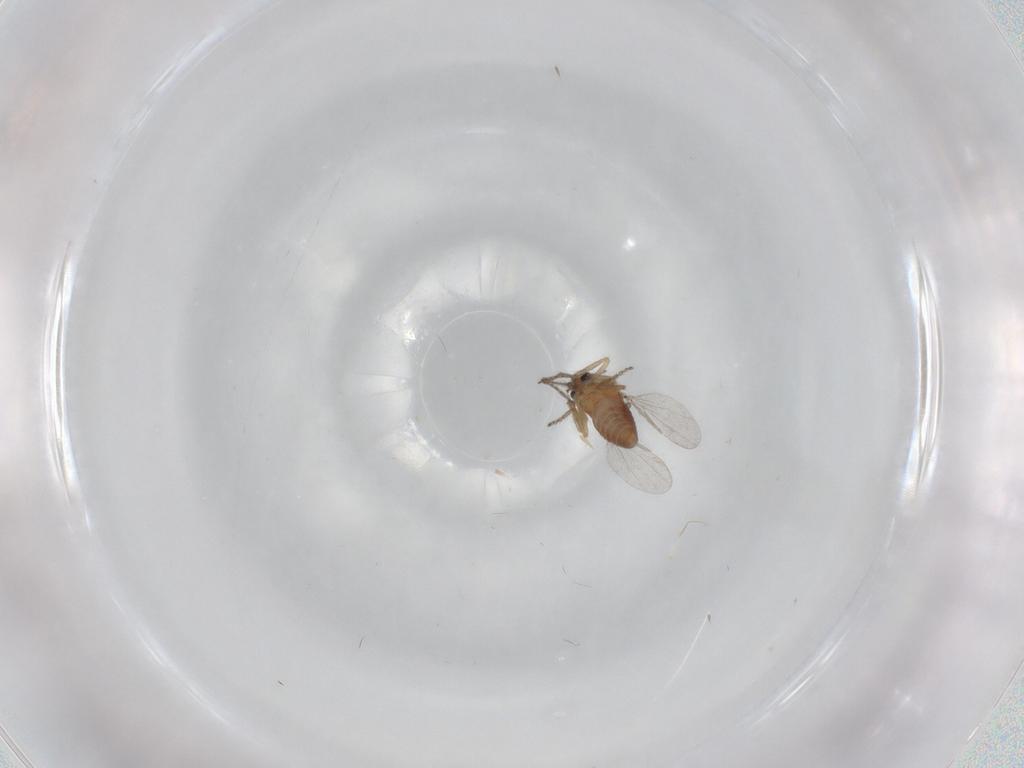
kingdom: Animalia
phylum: Arthropoda
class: Insecta
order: Diptera
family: Ceratopogonidae
